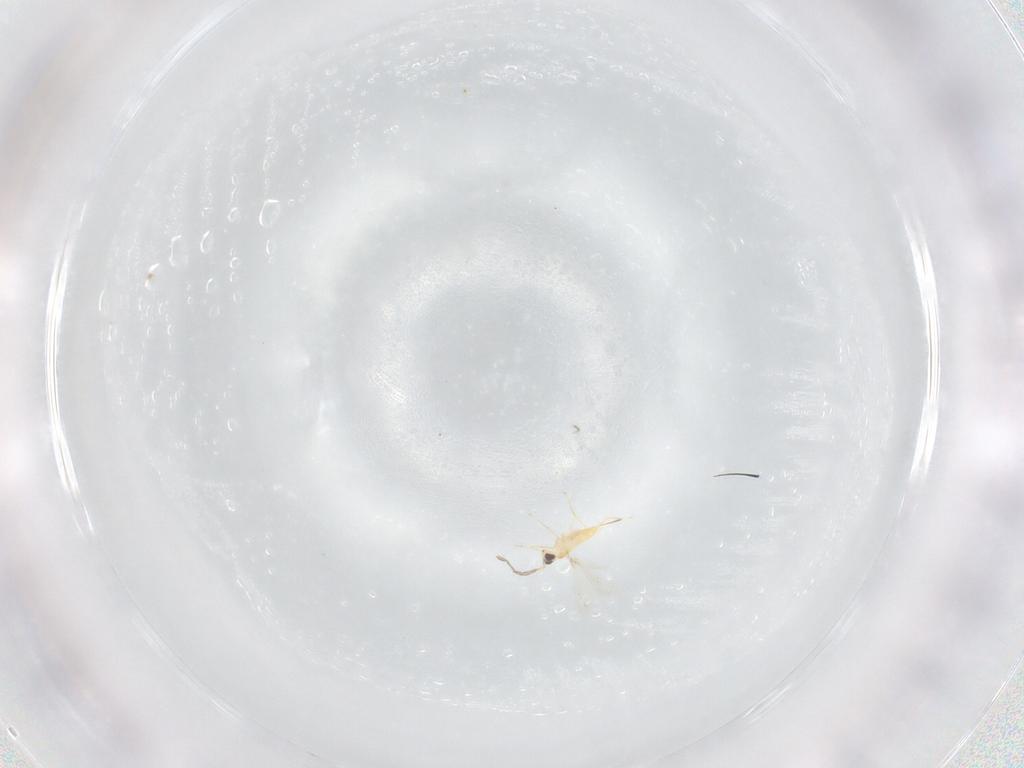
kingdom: Animalia
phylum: Arthropoda
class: Insecta
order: Hymenoptera
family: Mymaridae
